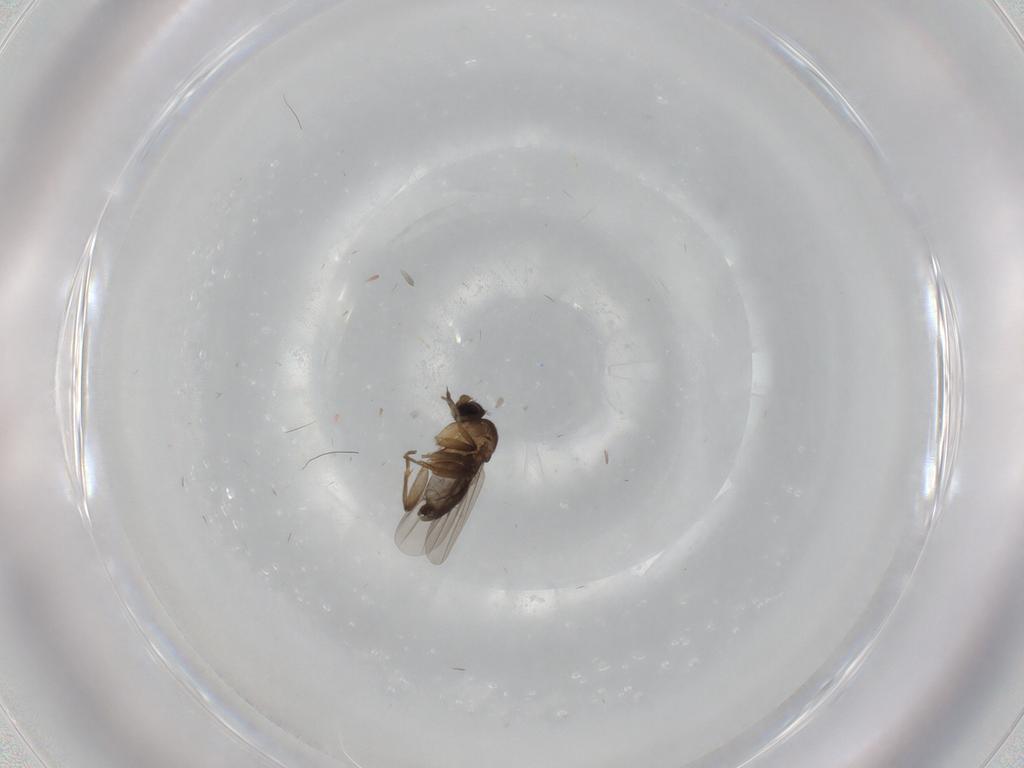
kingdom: Animalia
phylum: Arthropoda
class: Insecta
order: Diptera
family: Phoridae
